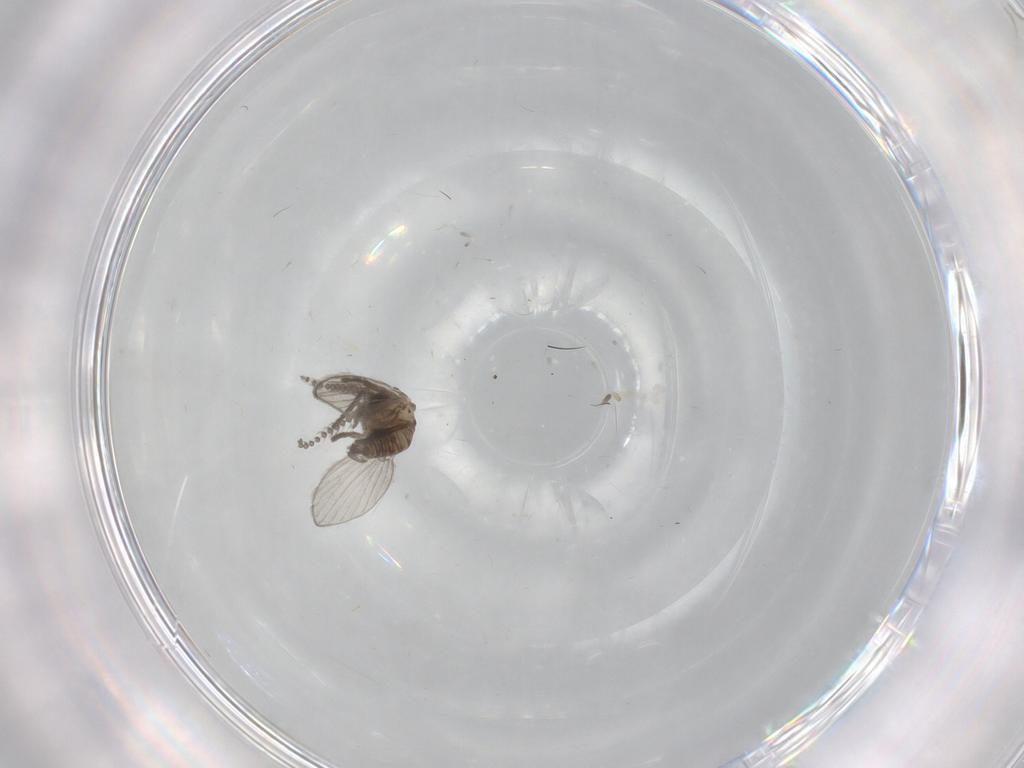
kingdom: Animalia
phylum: Arthropoda
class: Insecta
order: Diptera
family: Psychodidae
